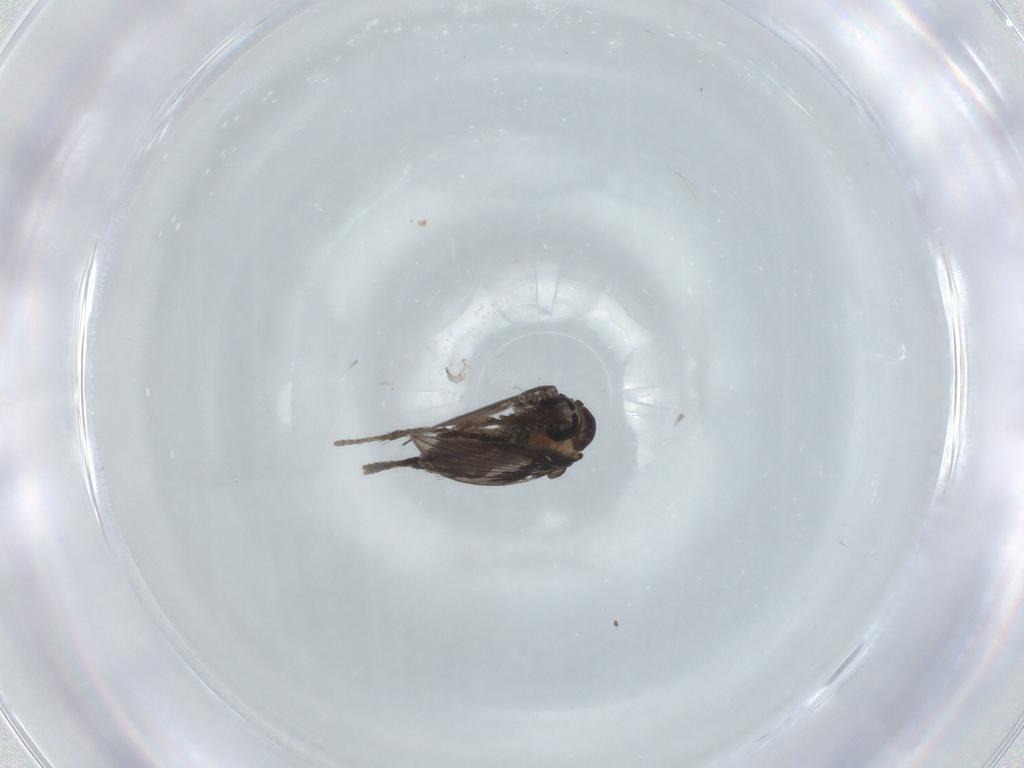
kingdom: Animalia
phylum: Arthropoda
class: Insecta
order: Diptera
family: Psychodidae
